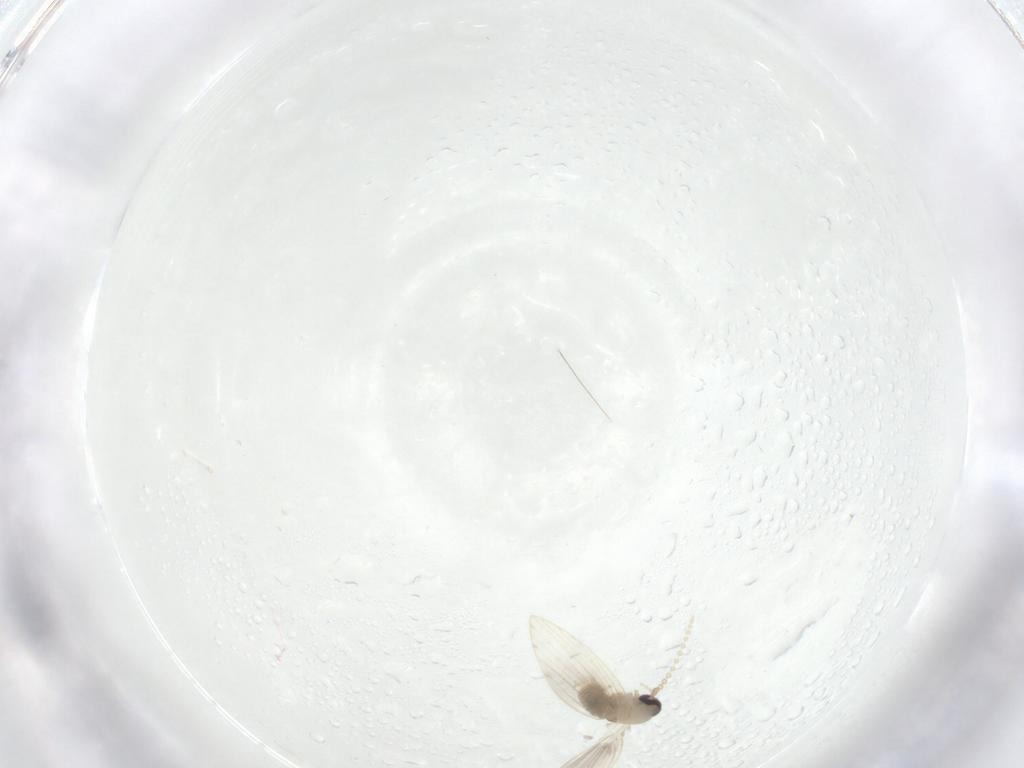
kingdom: Animalia
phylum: Arthropoda
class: Insecta
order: Diptera
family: Psychodidae
